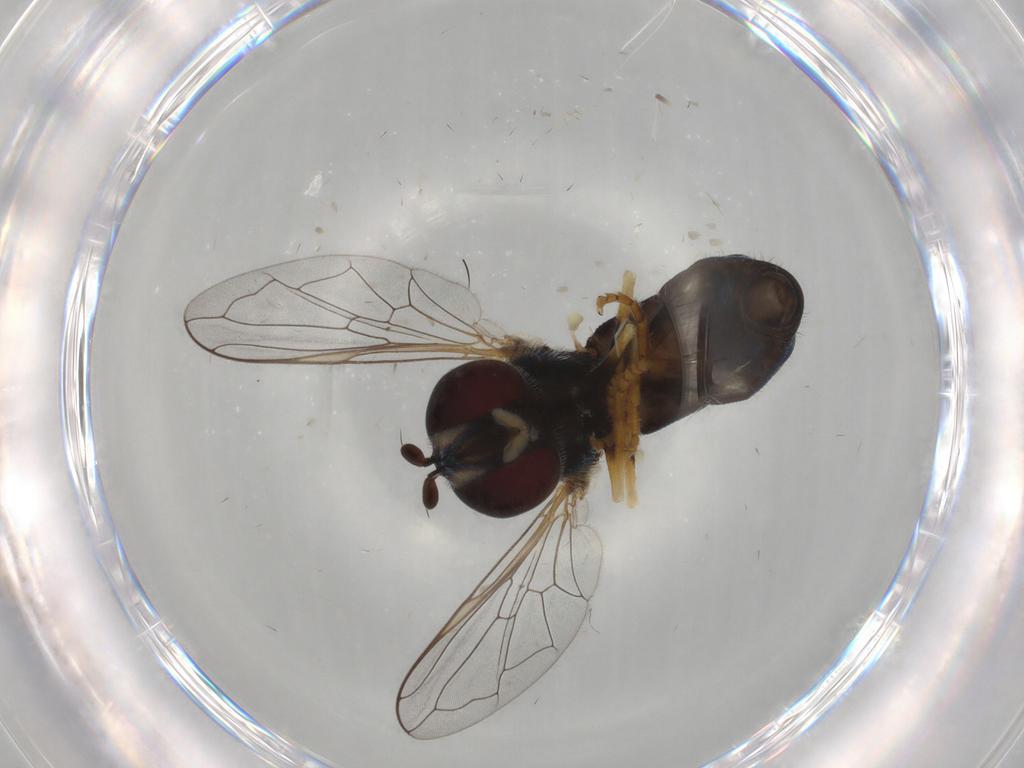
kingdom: Animalia
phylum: Arthropoda
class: Insecta
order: Diptera
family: Syrphidae
